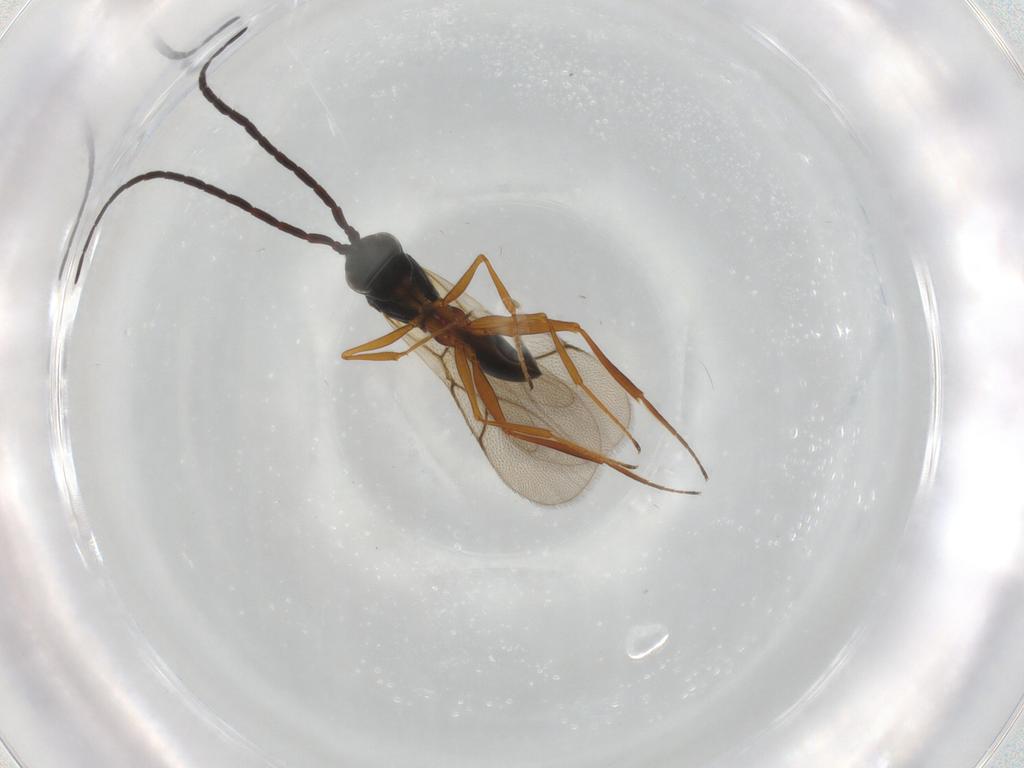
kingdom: Animalia
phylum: Arthropoda
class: Insecta
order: Hymenoptera
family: Figitidae
